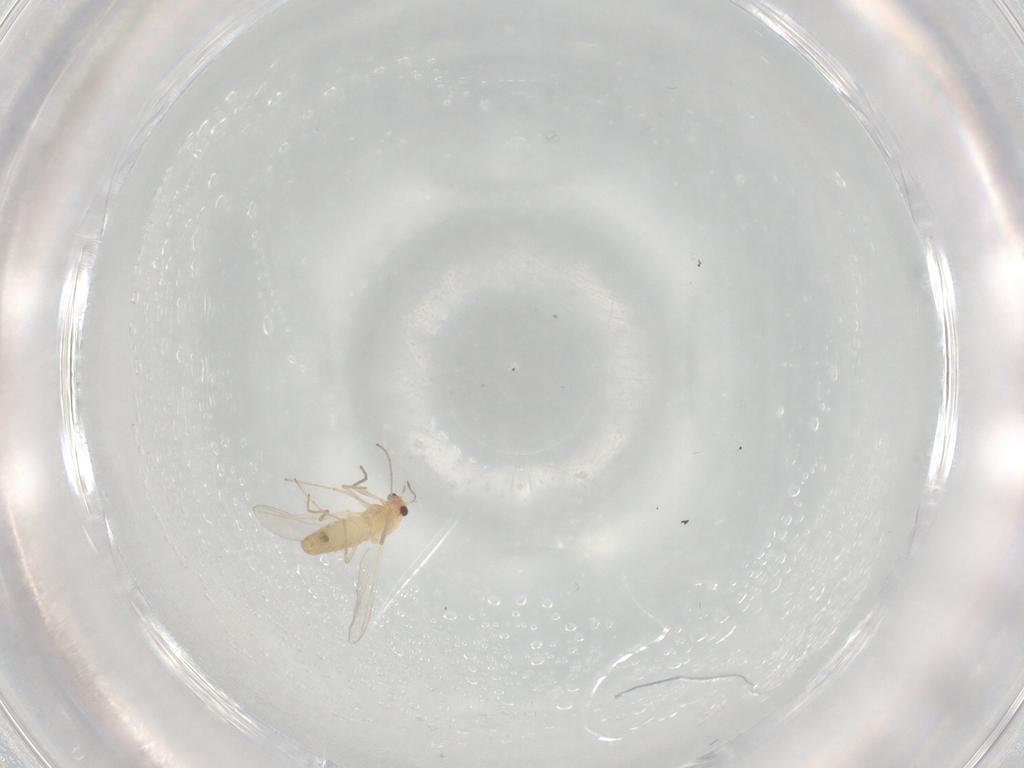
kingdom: Animalia
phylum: Arthropoda
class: Insecta
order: Diptera
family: Chironomidae
